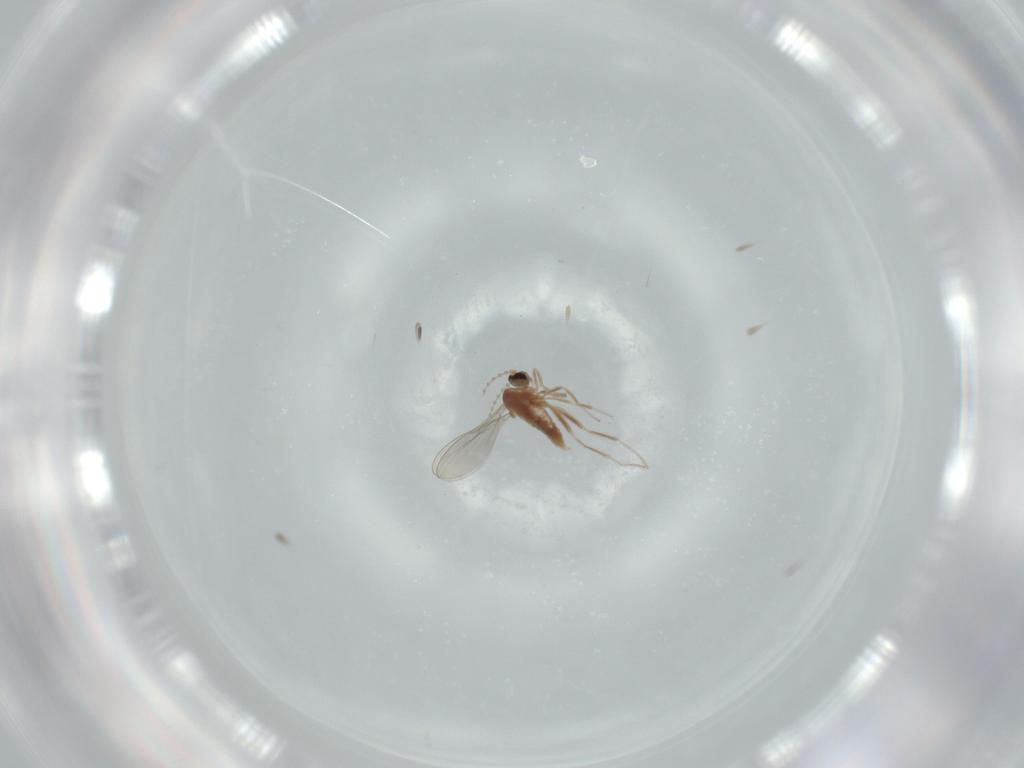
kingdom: Animalia
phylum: Arthropoda
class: Insecta
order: Diptera
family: Cecidomyiidae
